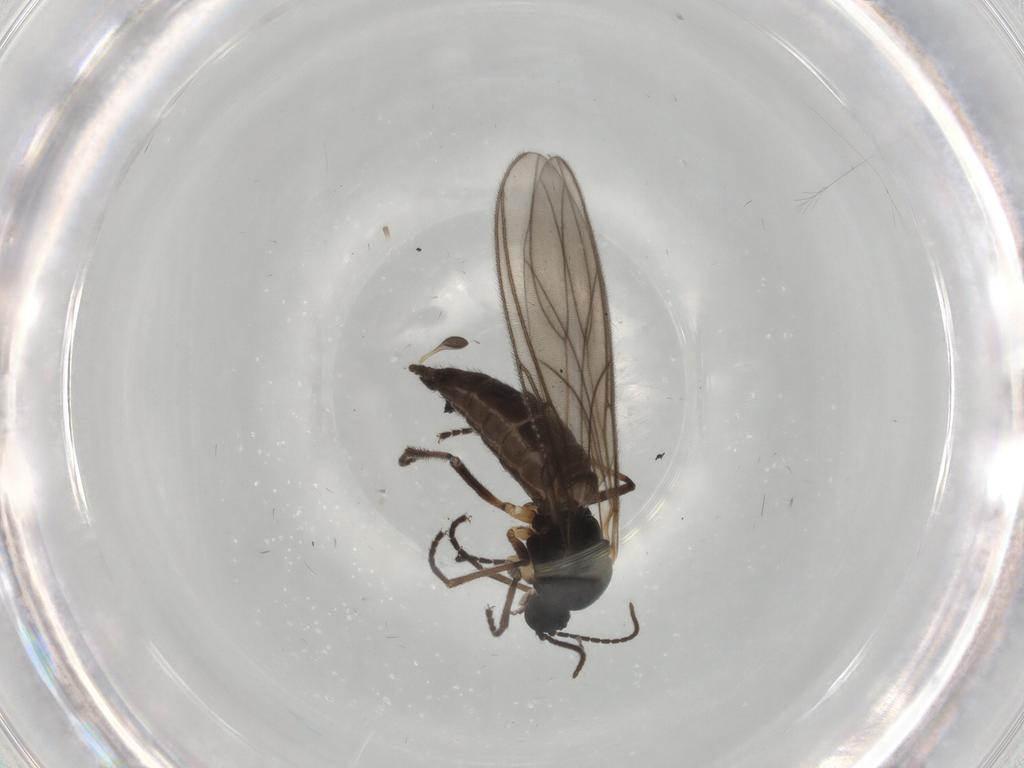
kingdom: Animalia
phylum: Arthropoda
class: Insecta
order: Diptera
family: Sciaridae
